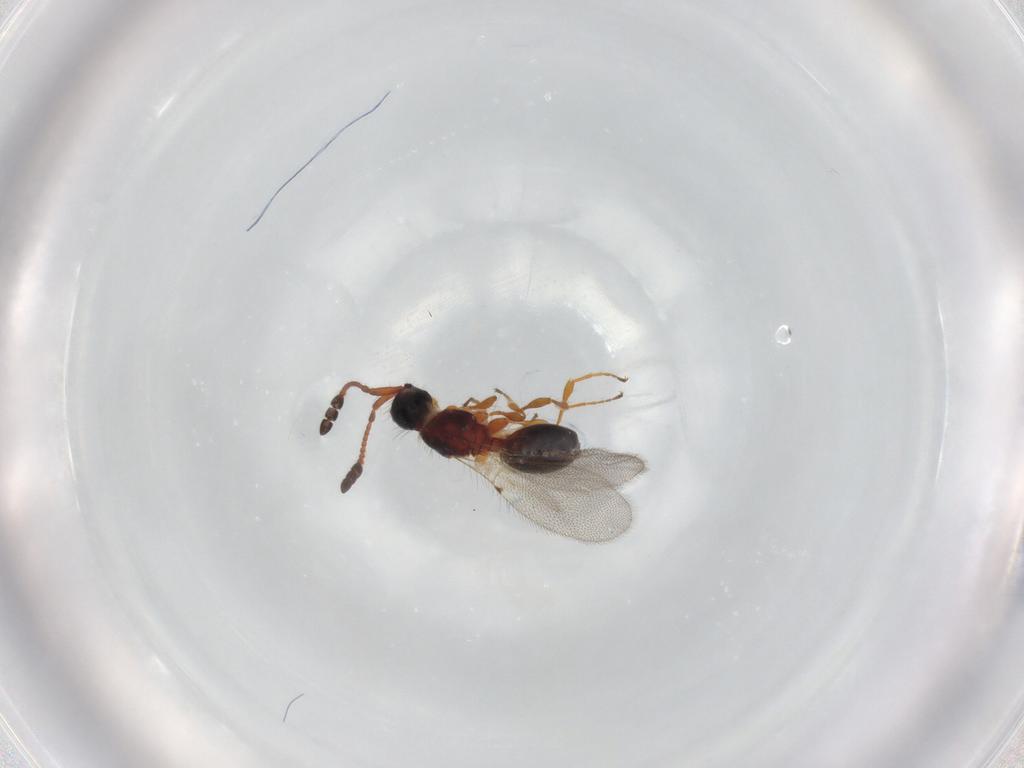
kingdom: Animalia
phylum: Arthropoda
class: Insecta
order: Hymenoptera
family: Diapriidae
